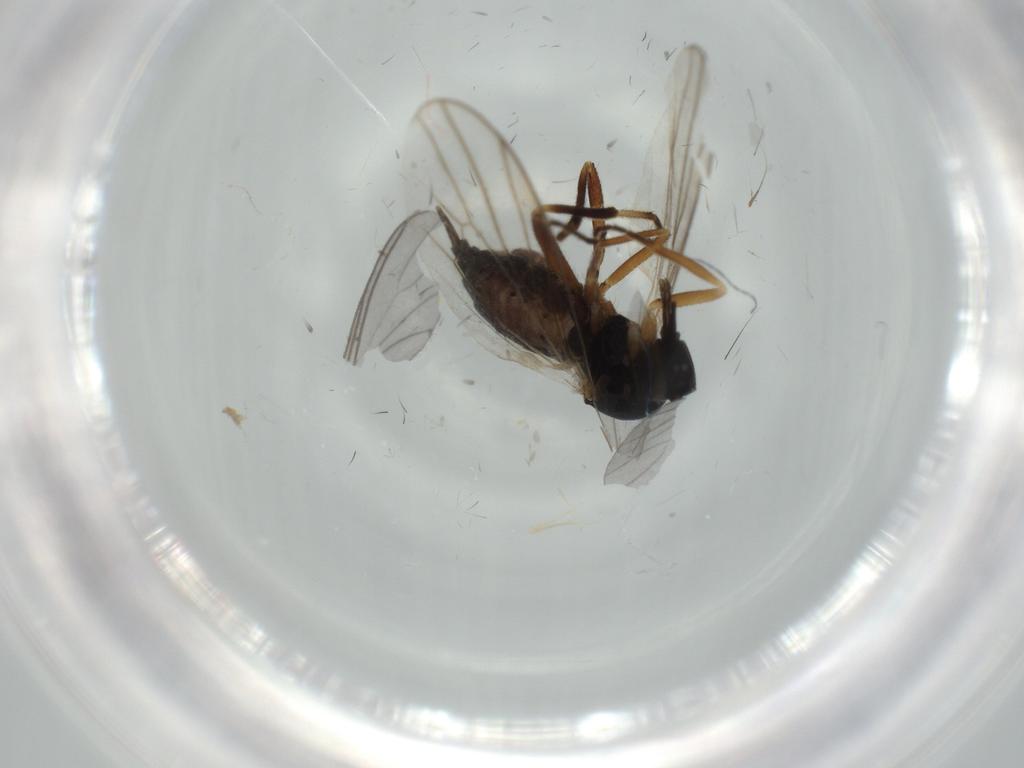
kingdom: Animalia
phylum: Arthropoda
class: Insecta
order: Diptera
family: Hybotidae
